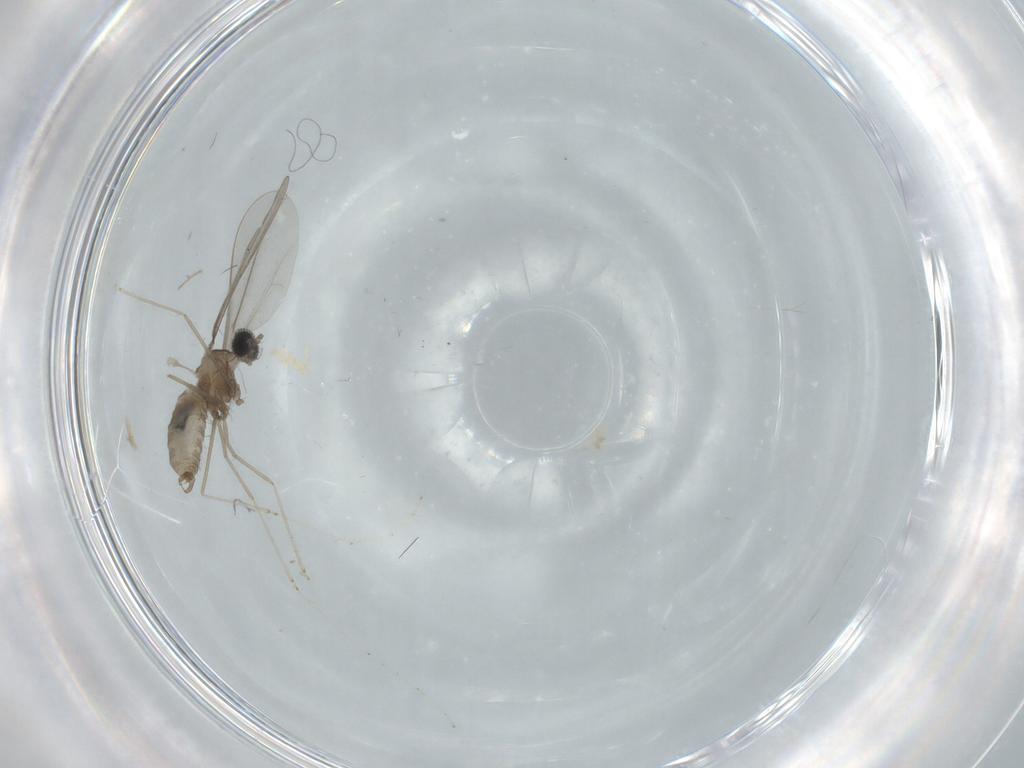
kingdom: Animalia
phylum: Arthropoda
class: Insecta
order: Diptera
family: Cecidomyiidae
